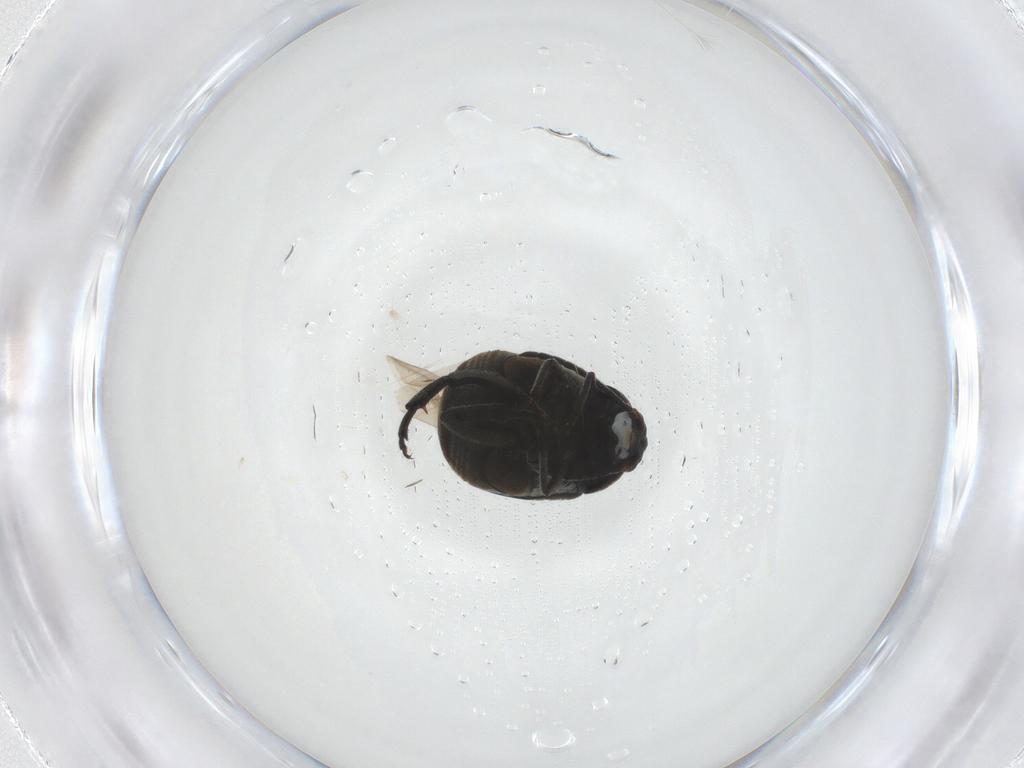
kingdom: Animalia
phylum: Arthropoda
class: Insecta
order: Coleoptera
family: Chrysomelidae
